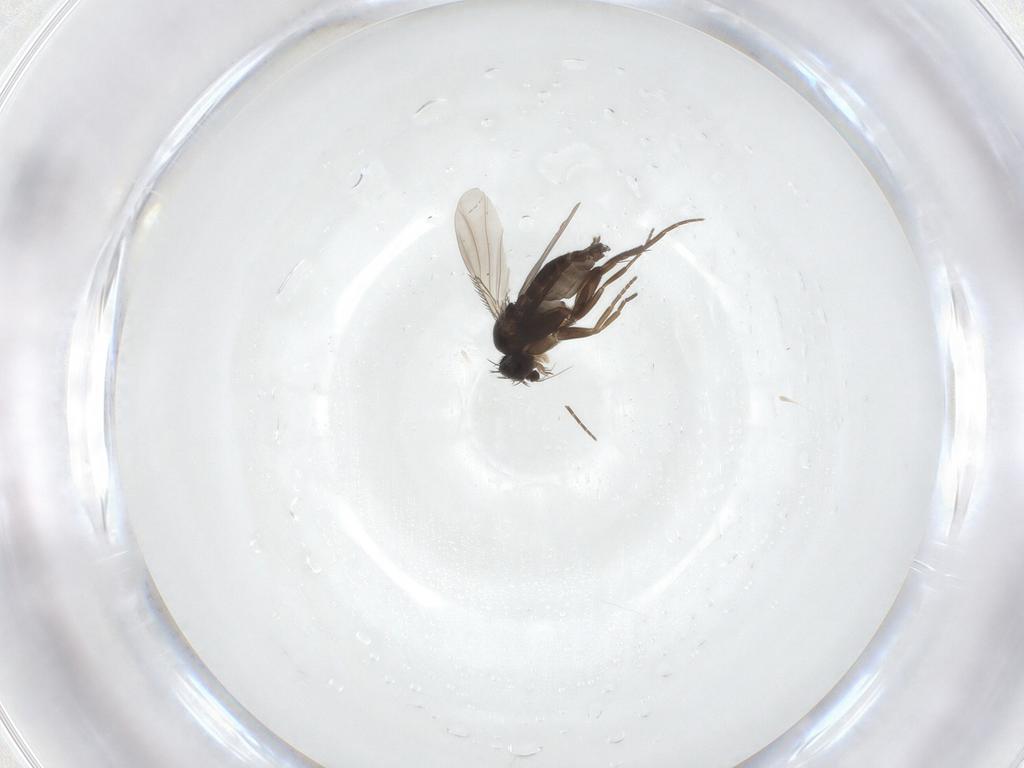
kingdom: Animalia
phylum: Arthropoda
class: Insecta
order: Diptera
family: Phoridae
